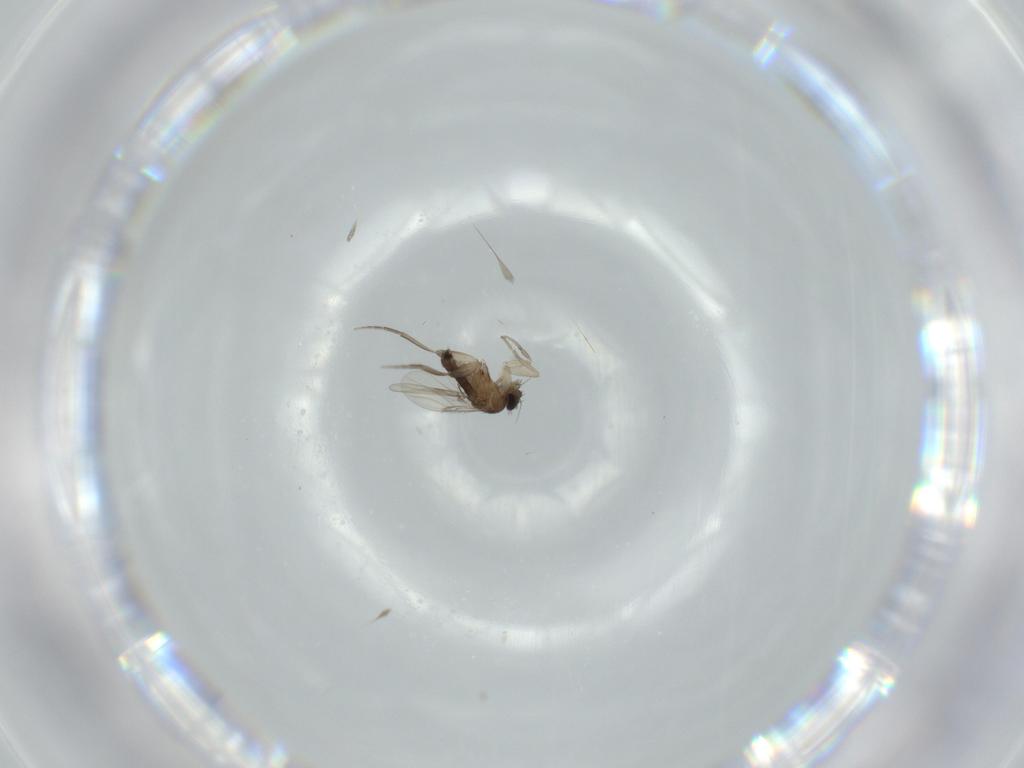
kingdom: Animalia
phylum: Arthropoda
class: Insecta
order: Diptera
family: Phoridae
